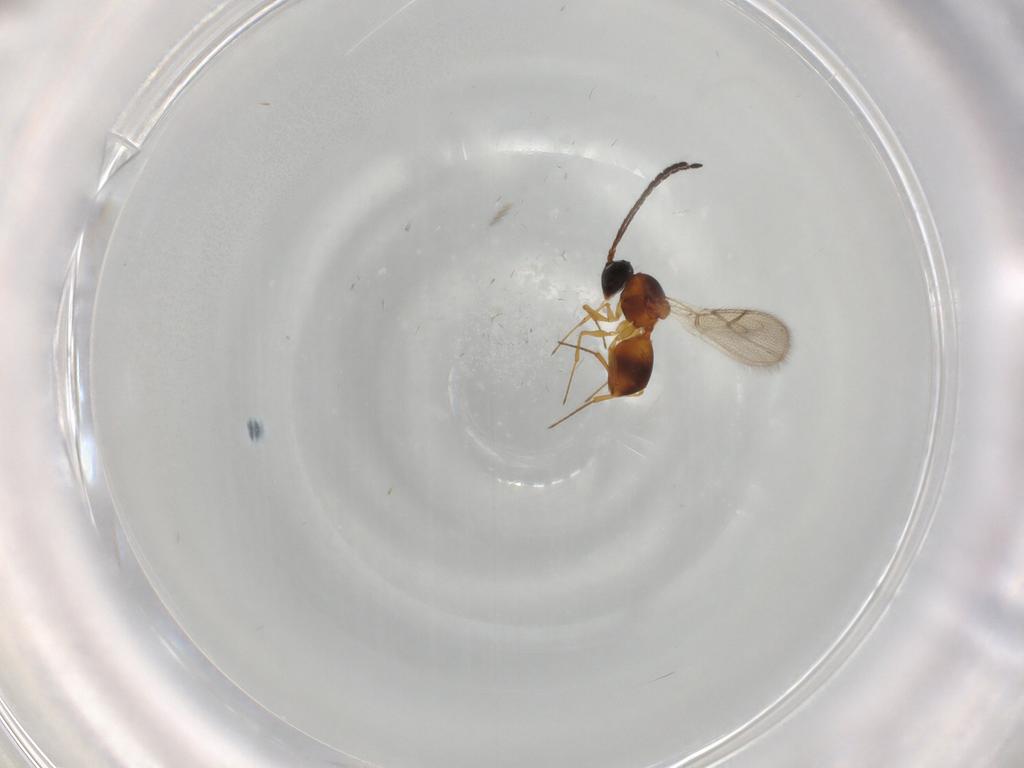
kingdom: Animalia
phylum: Arthropoda
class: Insecta
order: Hymenoptera
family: Figitidae
